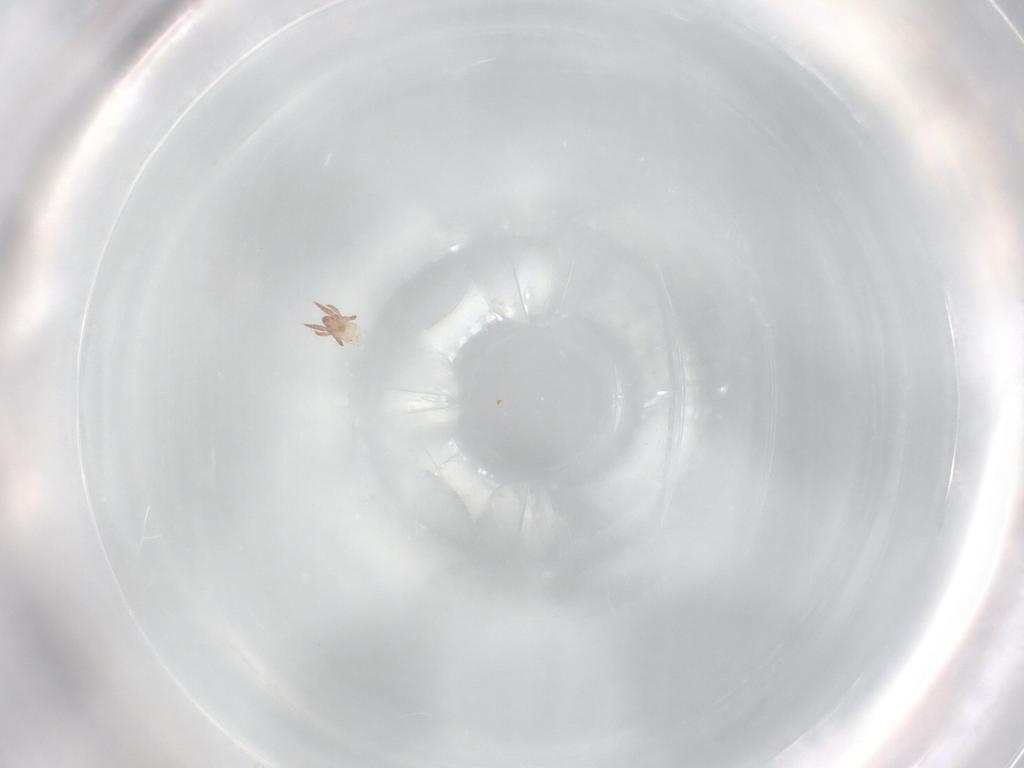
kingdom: Animalia
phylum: Arthropoda
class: Arachnida
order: Sarcoptiformes
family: Nothridae
